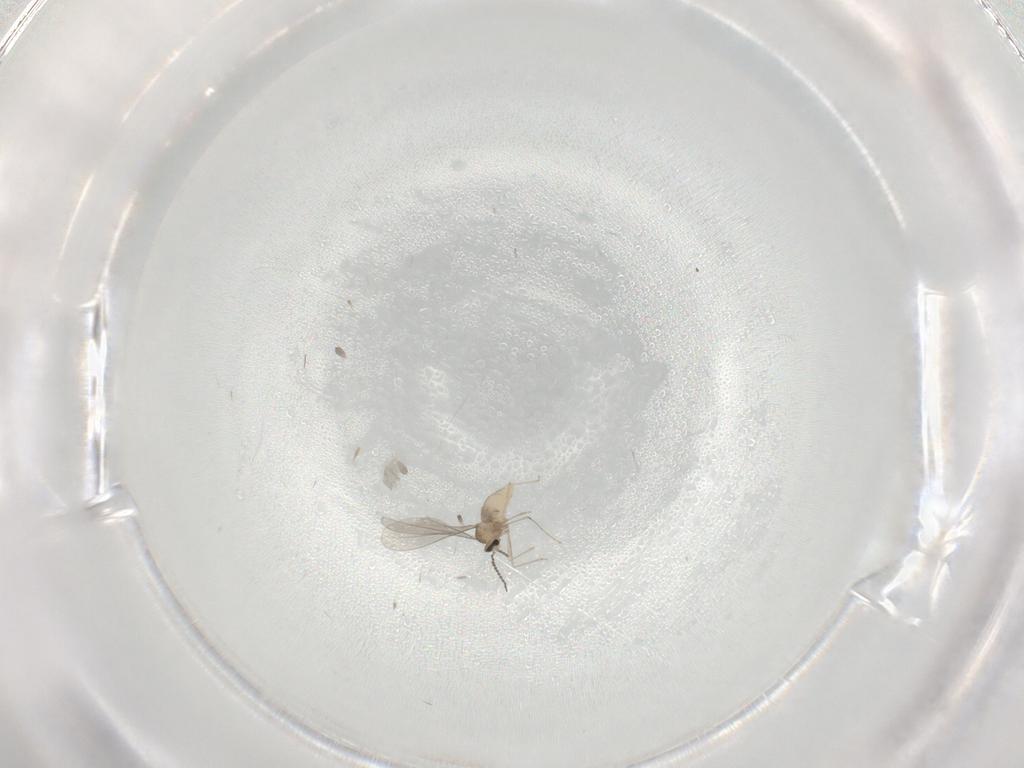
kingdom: Animalia
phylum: Arthropoda
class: Insecta
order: Diptera
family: Cecidomyiidae
